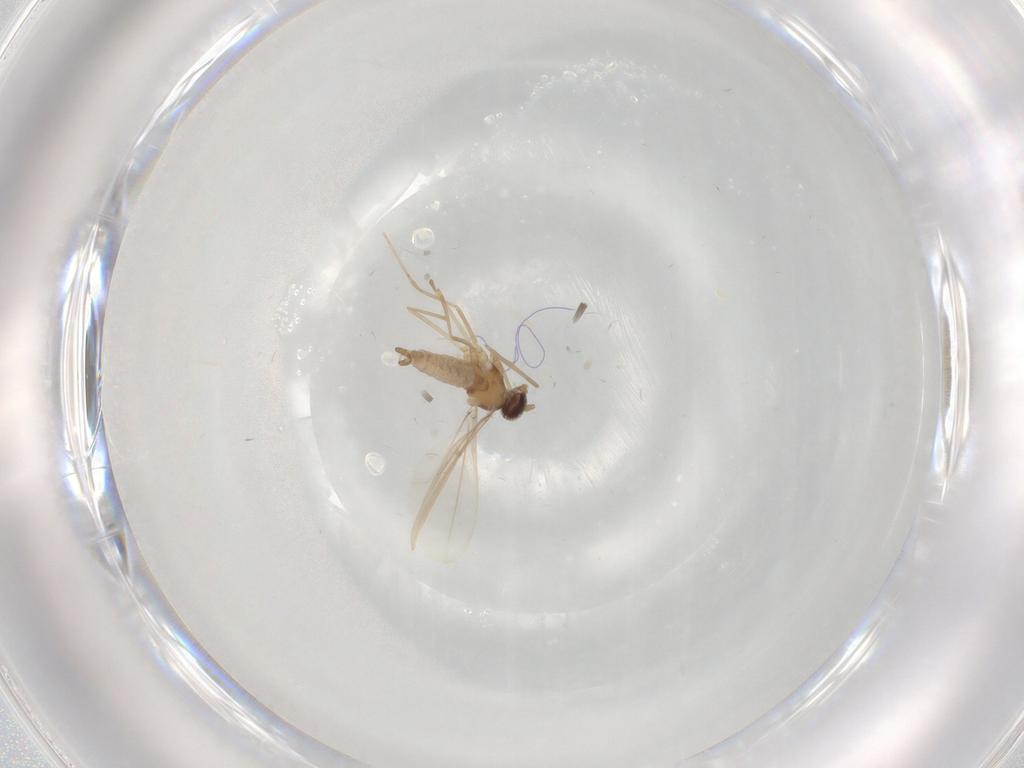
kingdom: Animalia
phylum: Arthropoda
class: Insecta
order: Diptera
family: Cecidomyiidae
